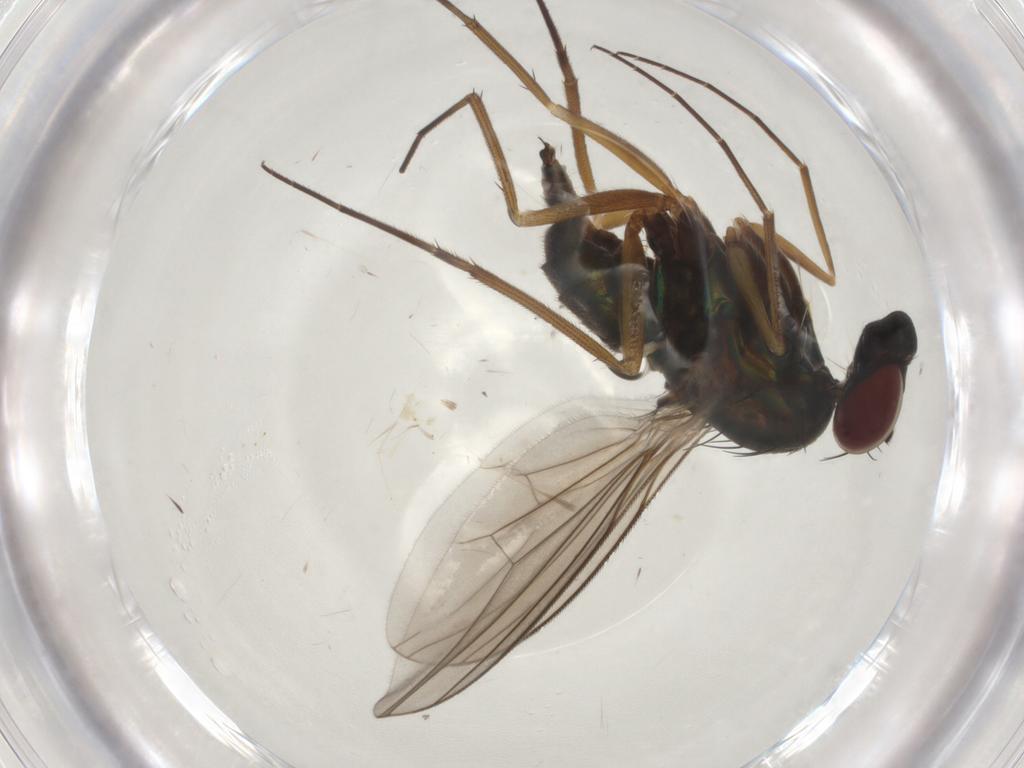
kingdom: Animalia
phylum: Arthropoda
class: Insecta
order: Diptera
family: Dolichopodidae
